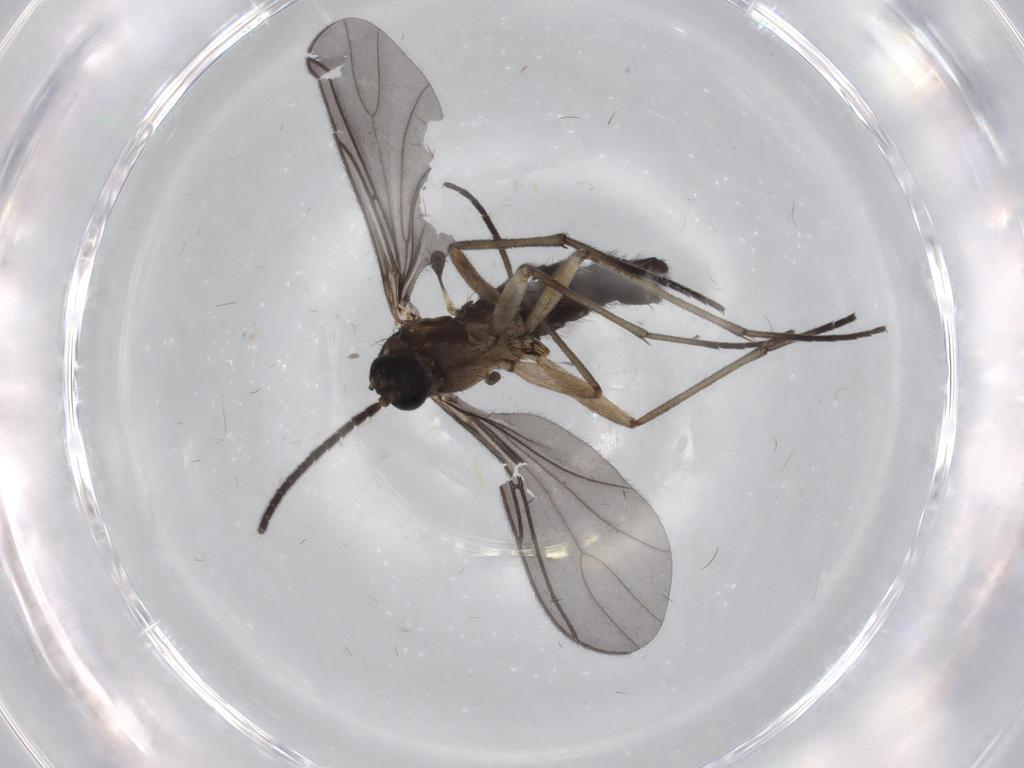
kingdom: Animalia
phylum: Arthropoda
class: Insecta
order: Diptera
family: Sciaridae
